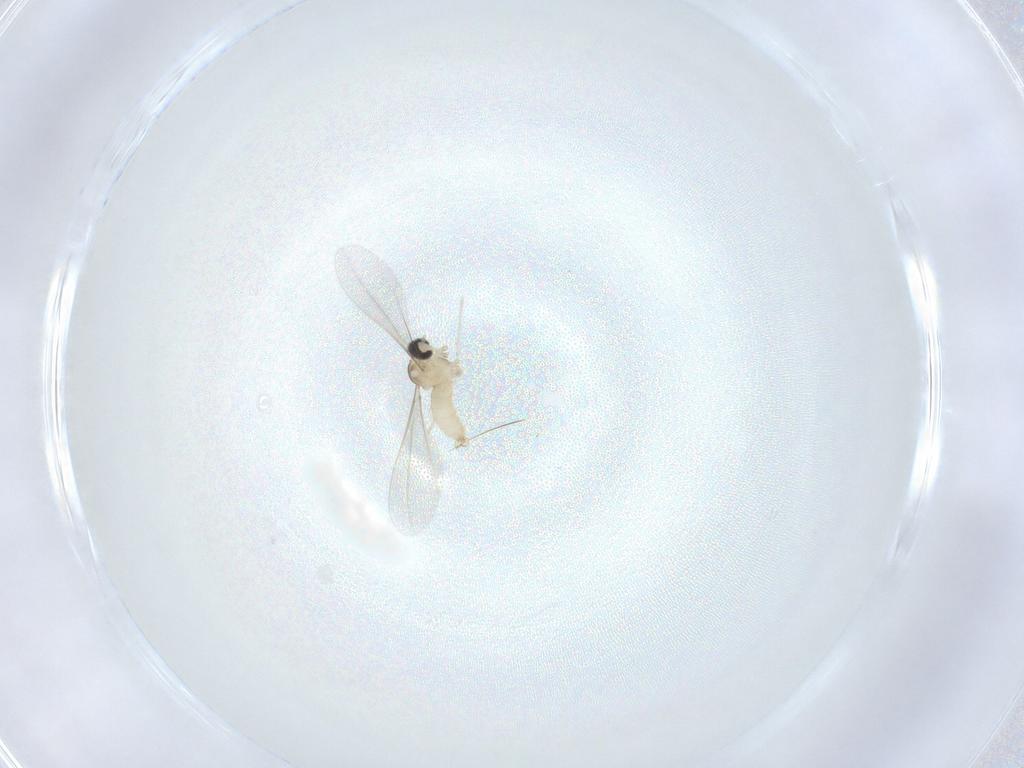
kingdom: Animalia
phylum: Arthropoda
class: Insecta
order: Diptera
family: Cecidomyiidae
